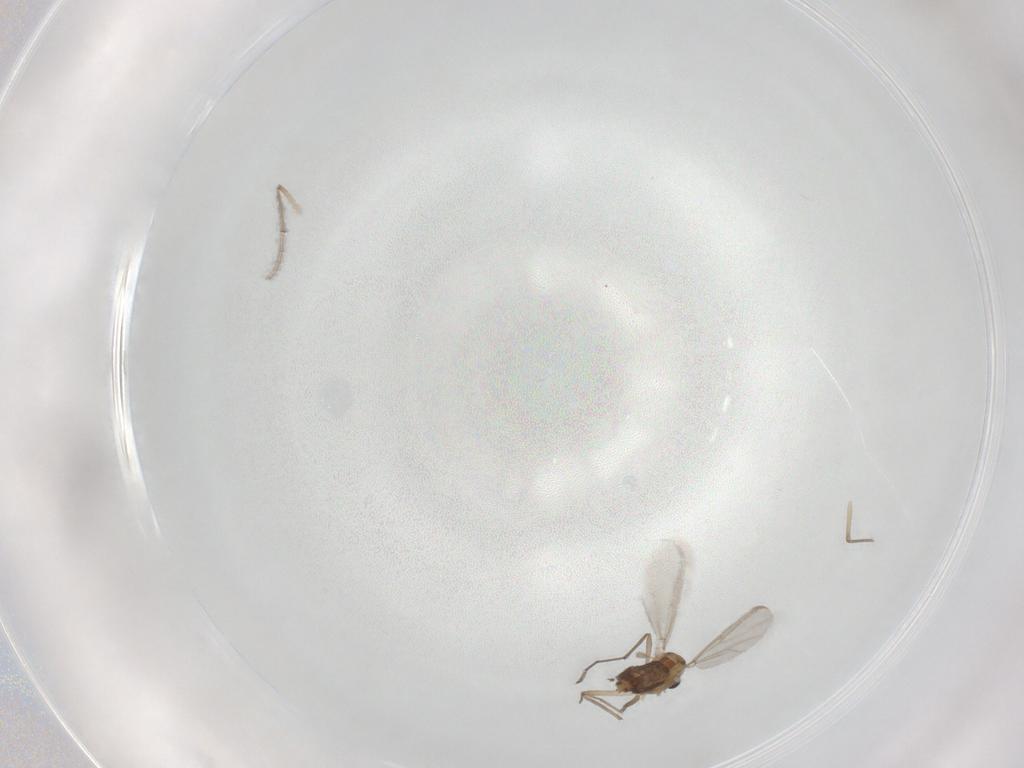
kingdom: Animalia
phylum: Arthropoda
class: Insecta
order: Diptera
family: Chironomidae
